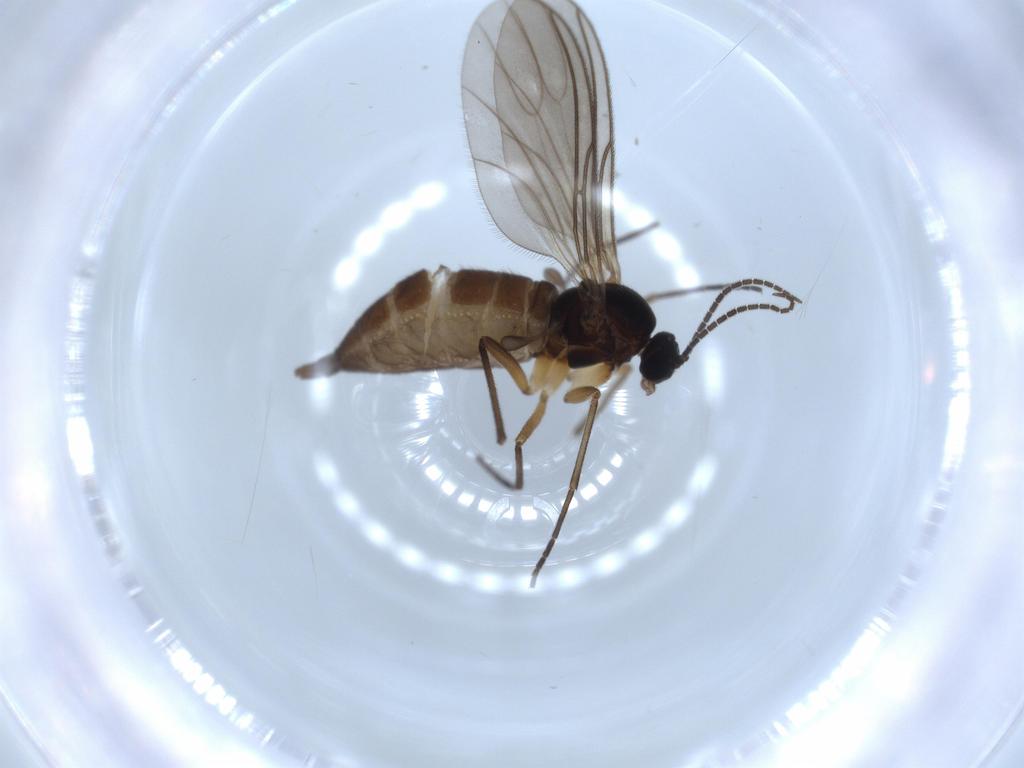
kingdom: Animalia
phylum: Arthropoda
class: Insecta
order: Diptera
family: Sciaridae
